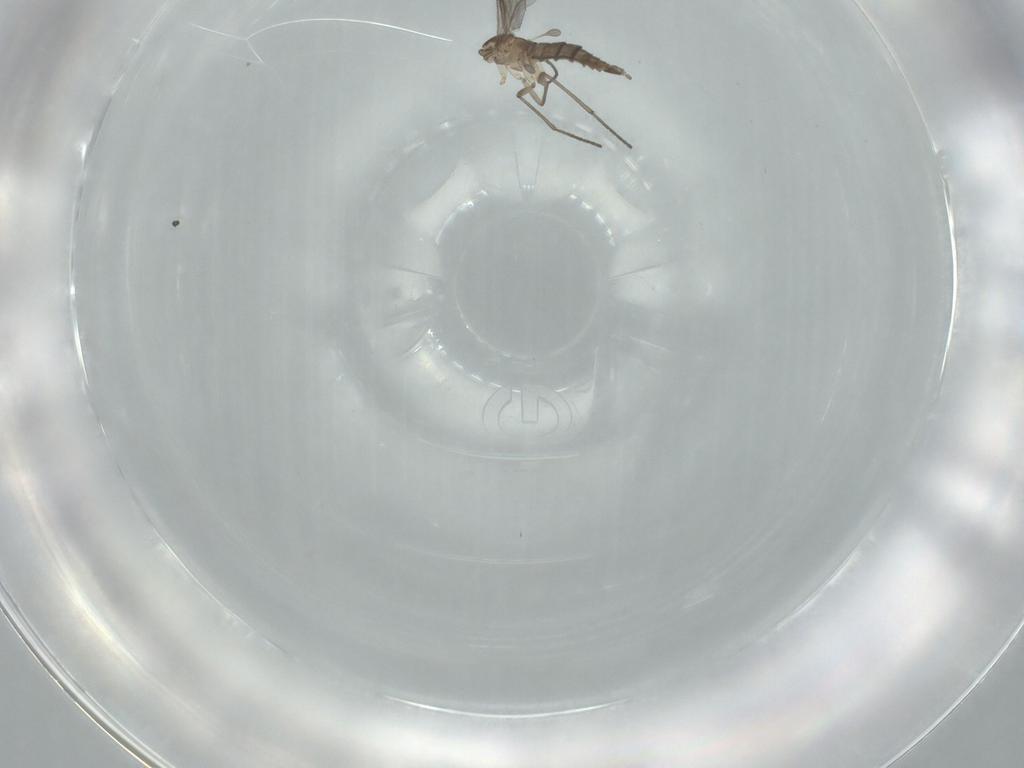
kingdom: Animalia
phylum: Arthropoda
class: Insecta
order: Diptera
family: Sciaridae
